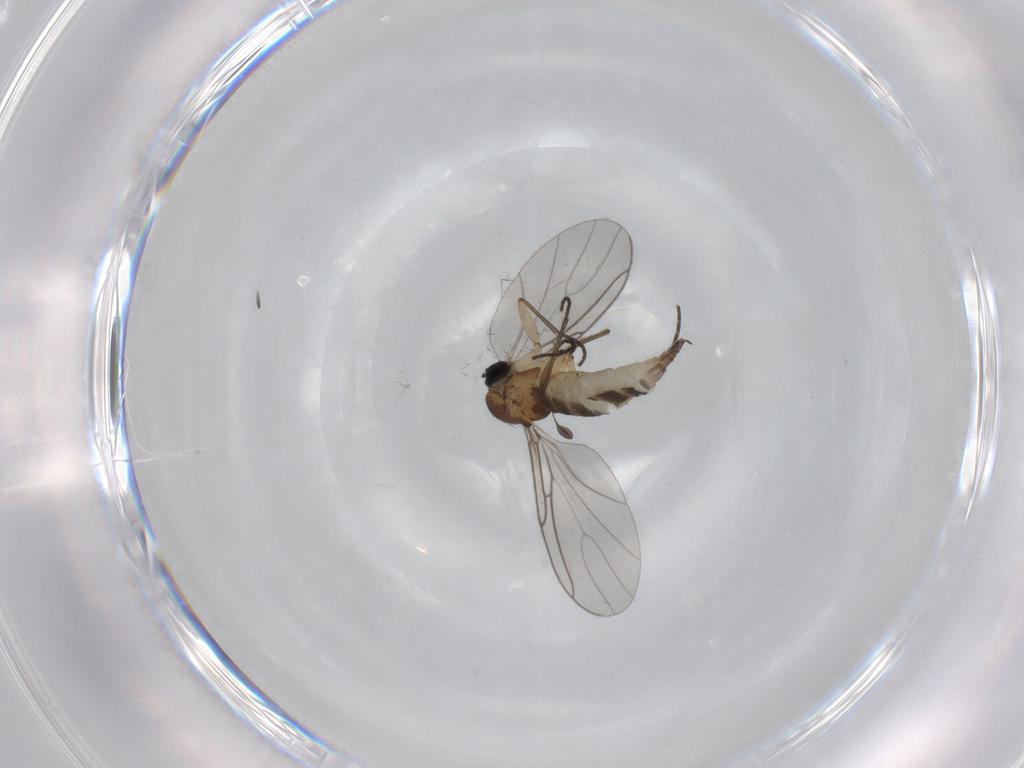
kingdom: Animalia
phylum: Arthropoda
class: Insecta
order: Diptera
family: Sciaridae
